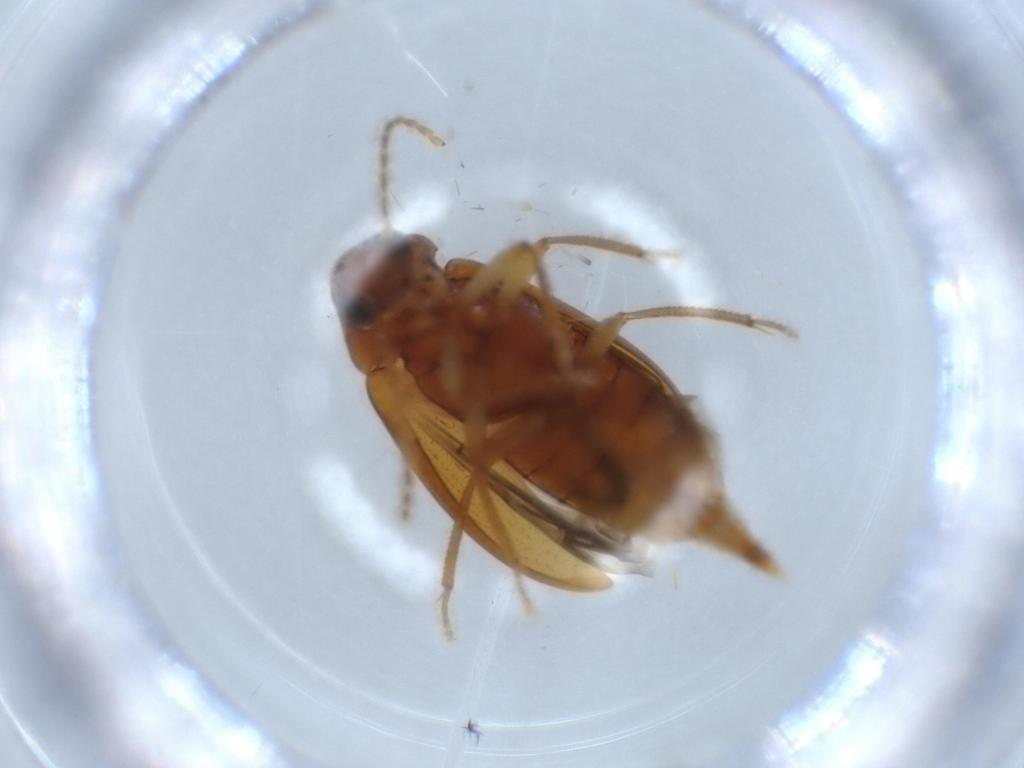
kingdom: Animalia
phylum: Arthropoda
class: Insecta
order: Coleoptera
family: Ptilodactylidae
